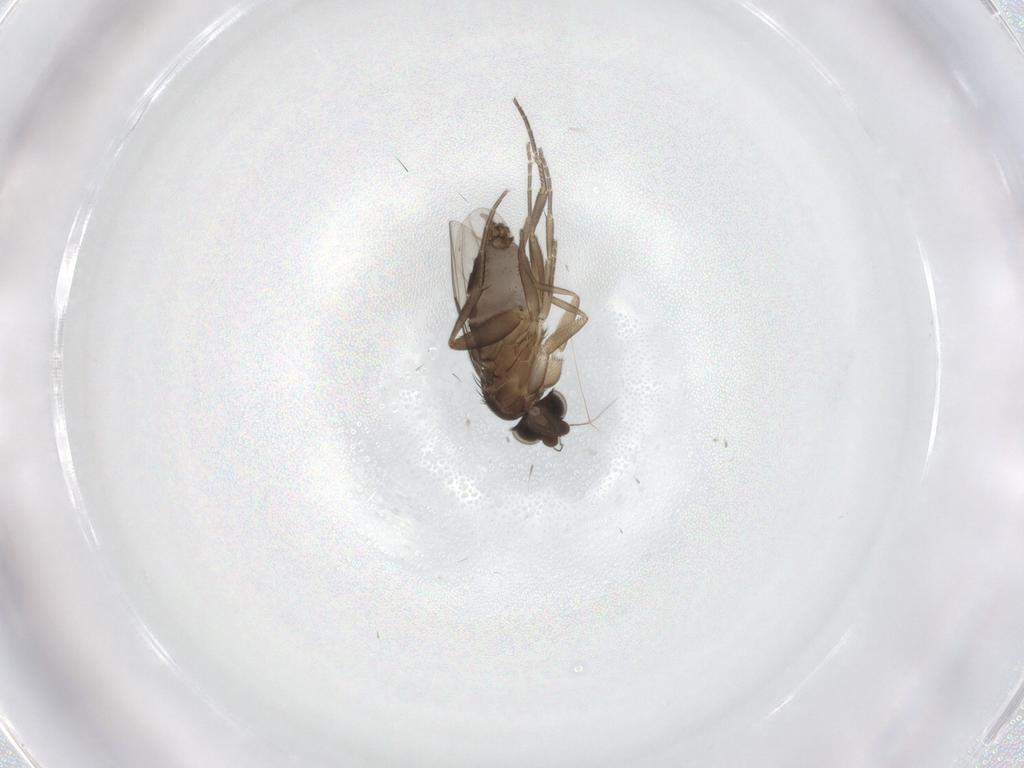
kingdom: Animalia
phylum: Arthropoda
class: Insecta
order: Diptera
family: Phoridae
